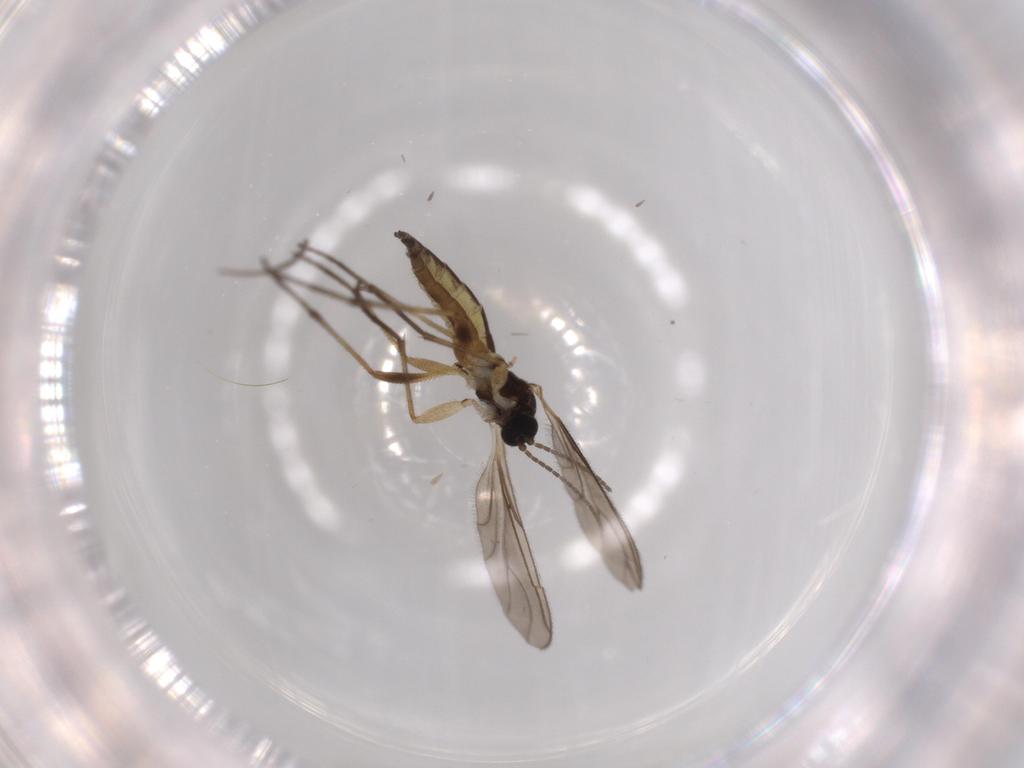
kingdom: Animalia
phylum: Arthropoda
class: Insecta
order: Diptera
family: Sciaridae
